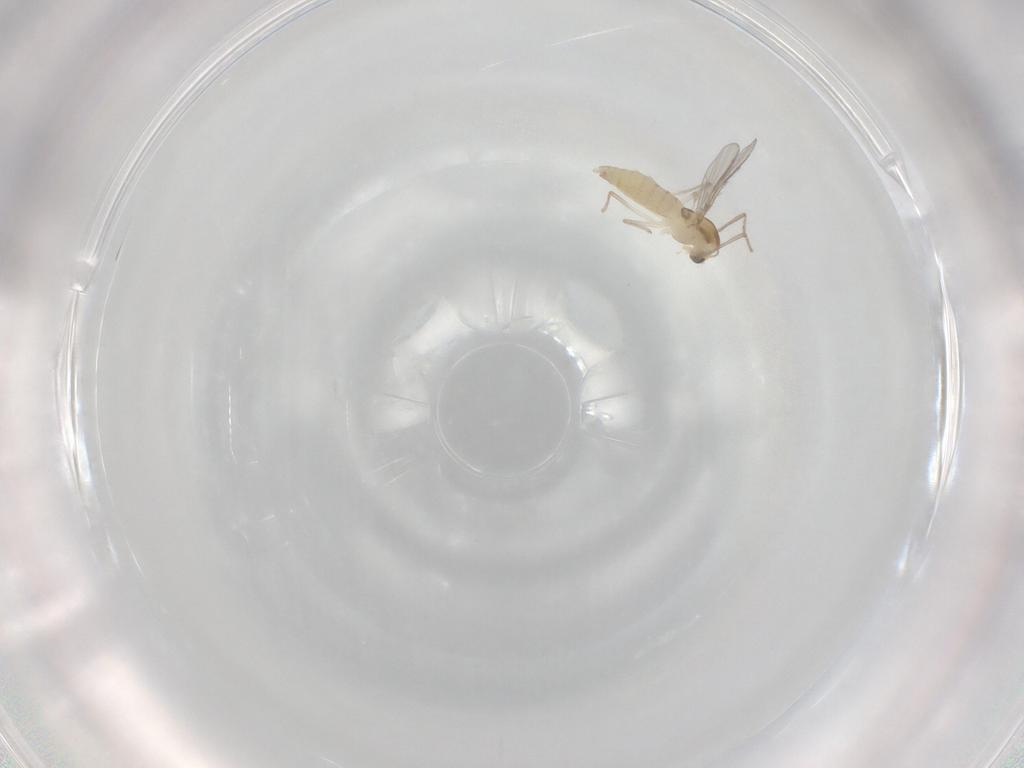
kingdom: Animalia
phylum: Arthropoda
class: Insecta
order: Diptera
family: Chironomidae
